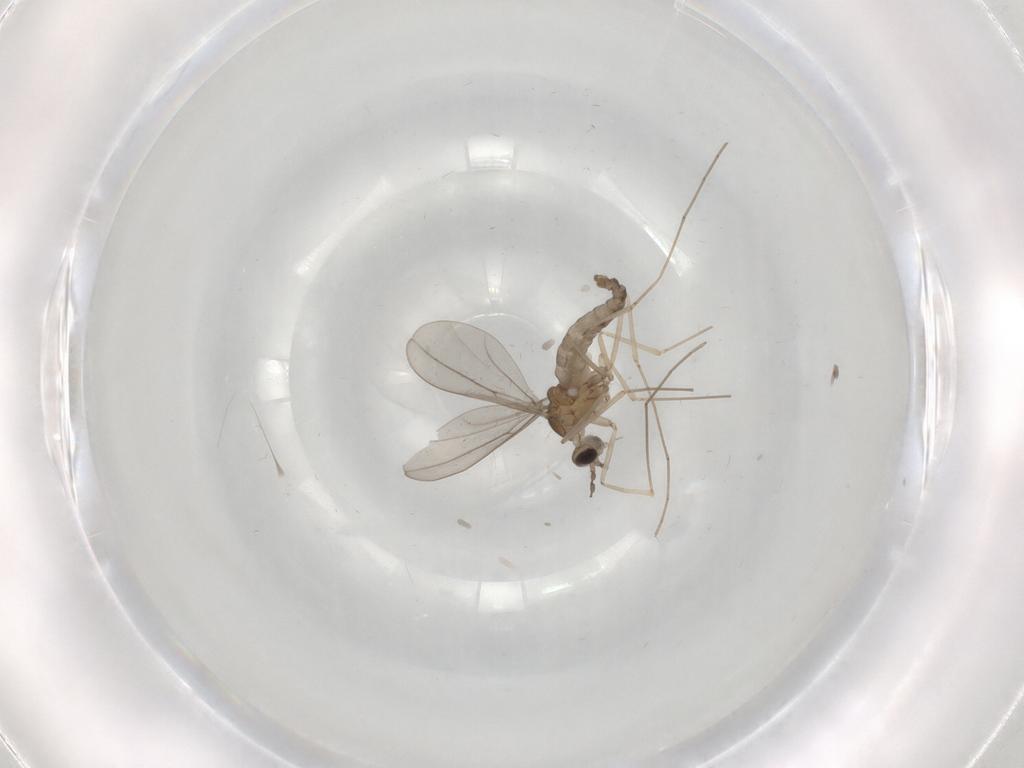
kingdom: Animalia
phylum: Arthropoda
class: Insecta
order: Diptera
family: Cecidomyiidae
